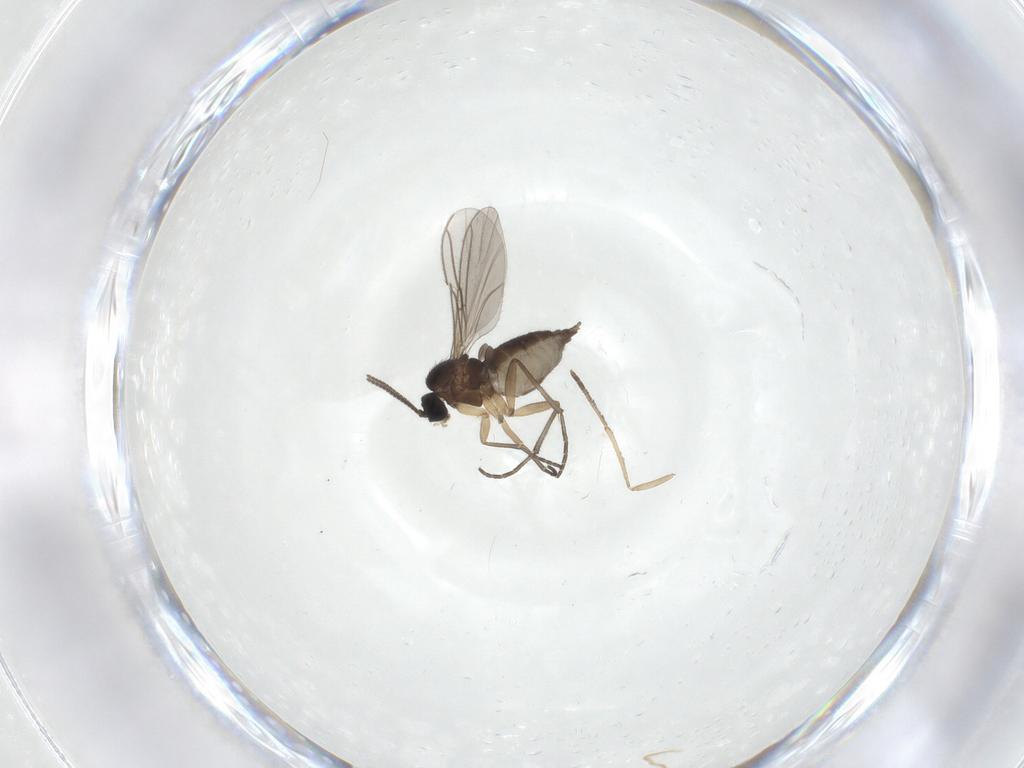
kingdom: Animalia
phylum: Arthropoda
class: Insecta
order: Diptera
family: Sciaridae
